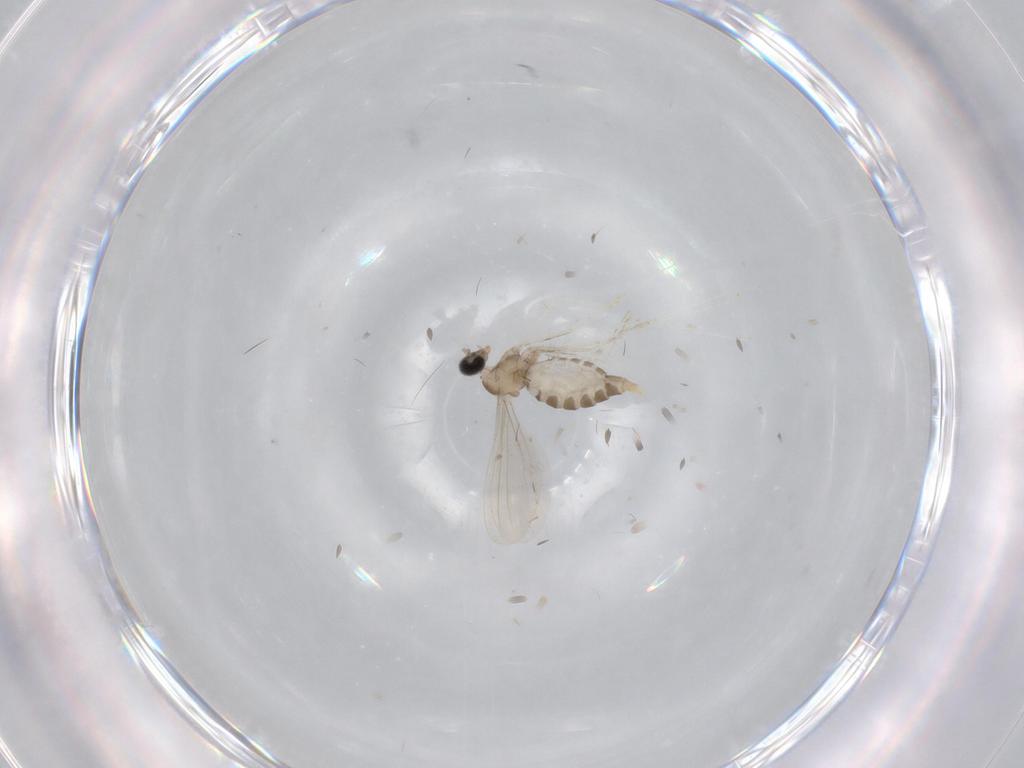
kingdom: Animalia
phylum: Arthropoda
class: Insecta
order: Diptera
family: Cecidomyiidae
